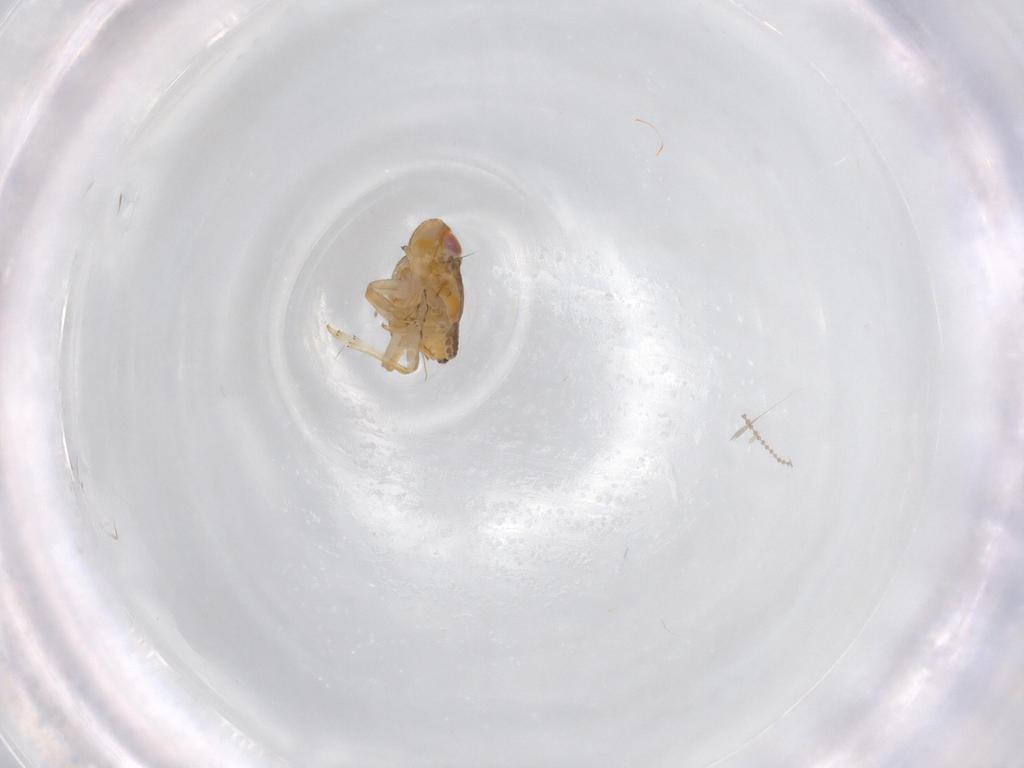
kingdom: Animalia
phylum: Arthropoda
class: Insecta
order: Hemiptera
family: Issidae
